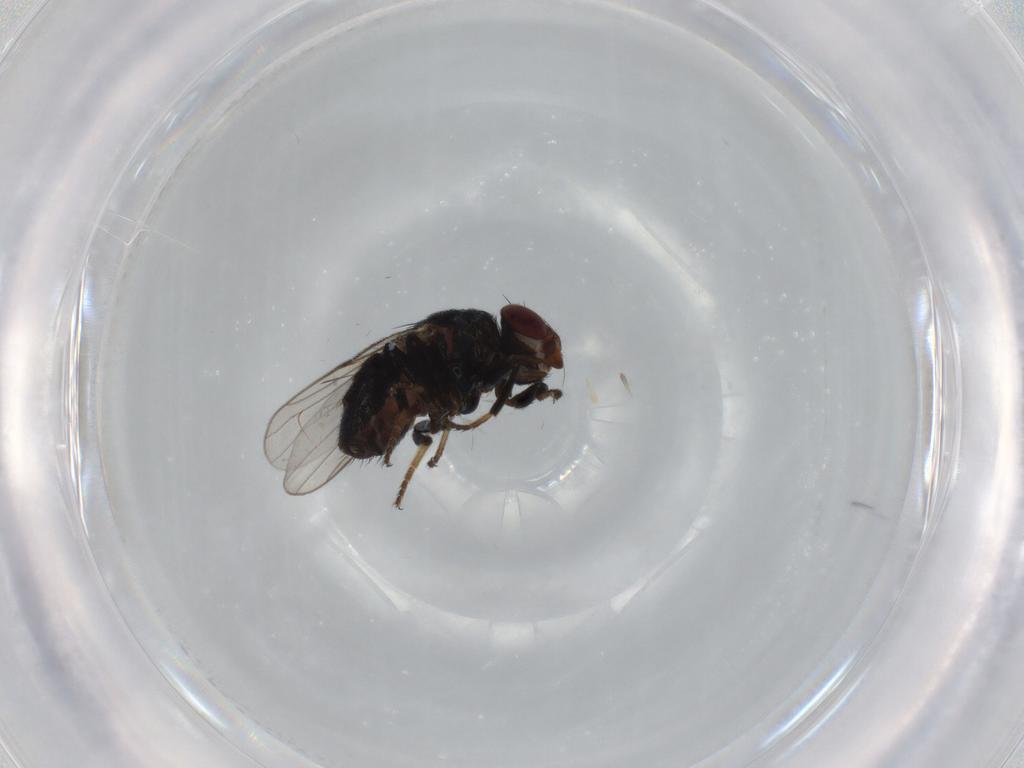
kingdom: Animalia
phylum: Arthropoda
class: Insecta
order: Diptera
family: Chloropidae
